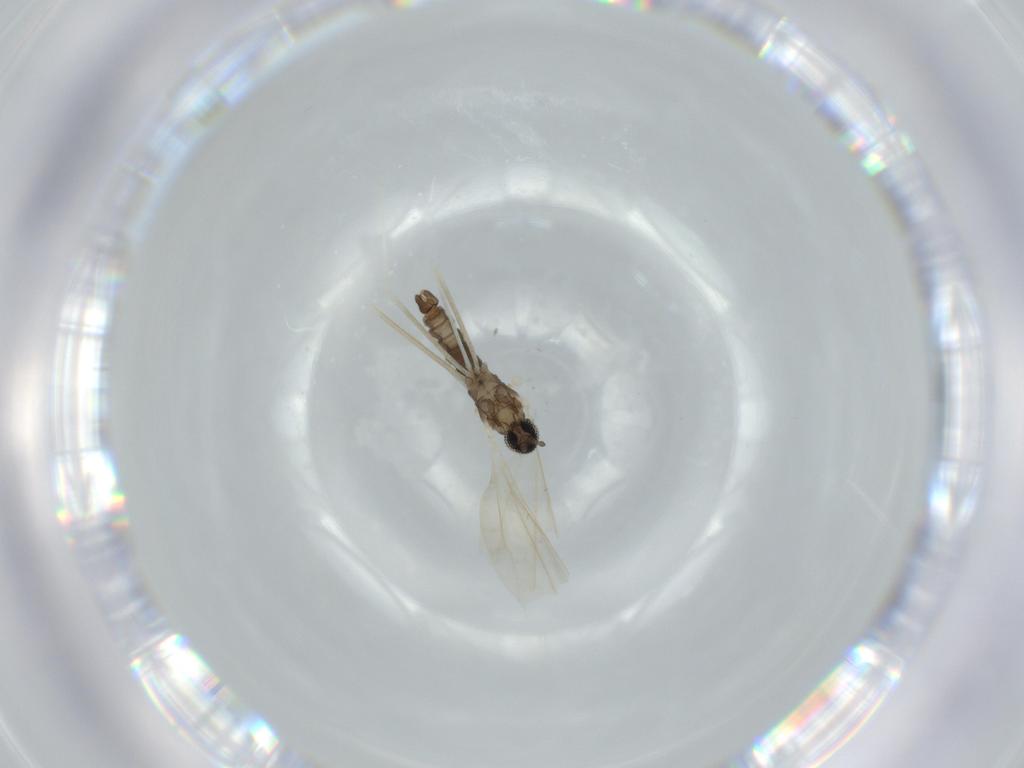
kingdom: Animalia
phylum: Arthropoda
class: Insecta
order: Diptera
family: Cecidomyiidae
